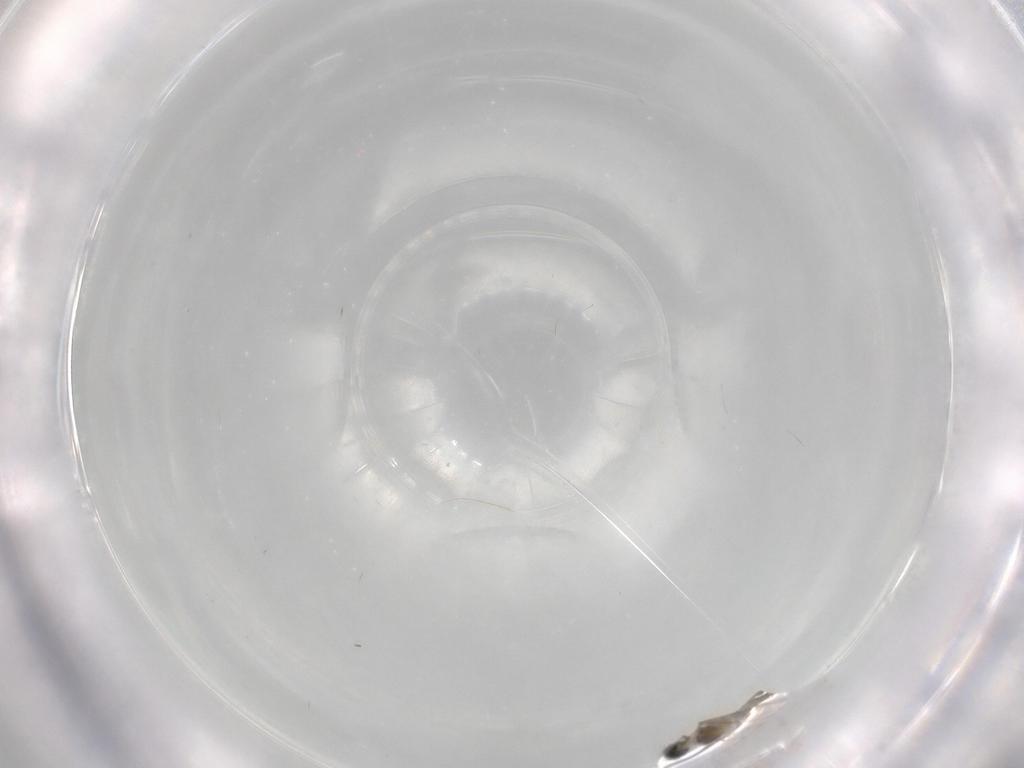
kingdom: Animalia
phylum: Arthropoda
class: Insecta
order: Diptera
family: Cecidomyiidae
